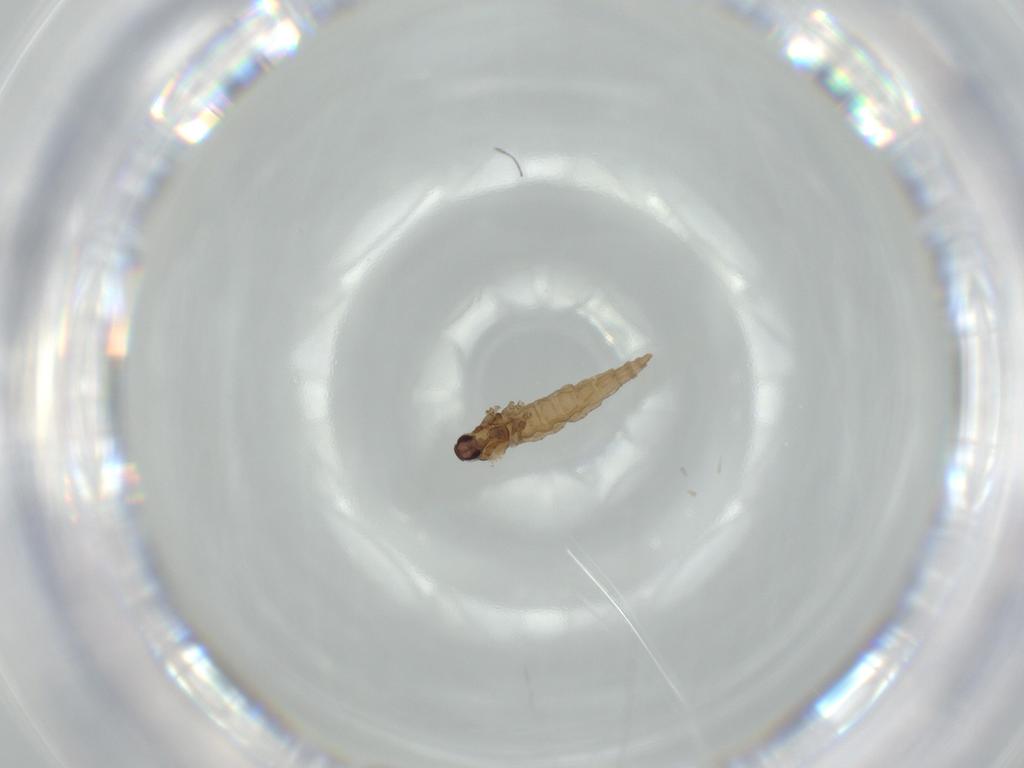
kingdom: Animalia
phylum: Arthropoda
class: Insecta
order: Diptera
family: Cecidomyiidae
